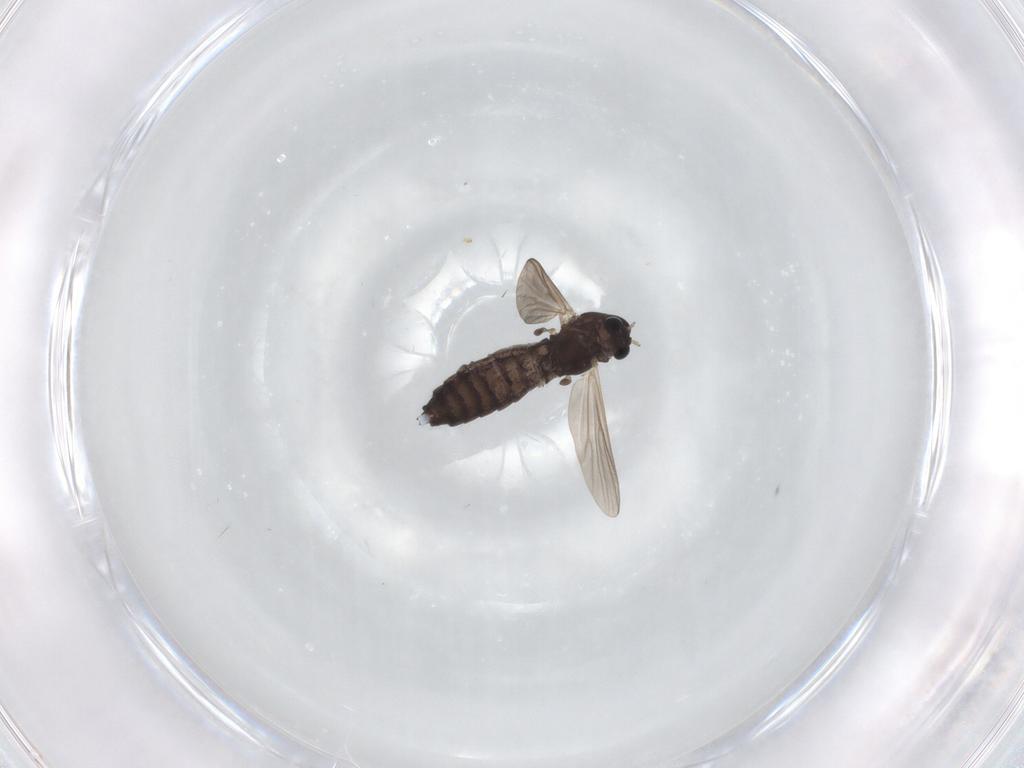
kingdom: Animalia
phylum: Arthropoda
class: Insecta
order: Diptera
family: Chironomidae
